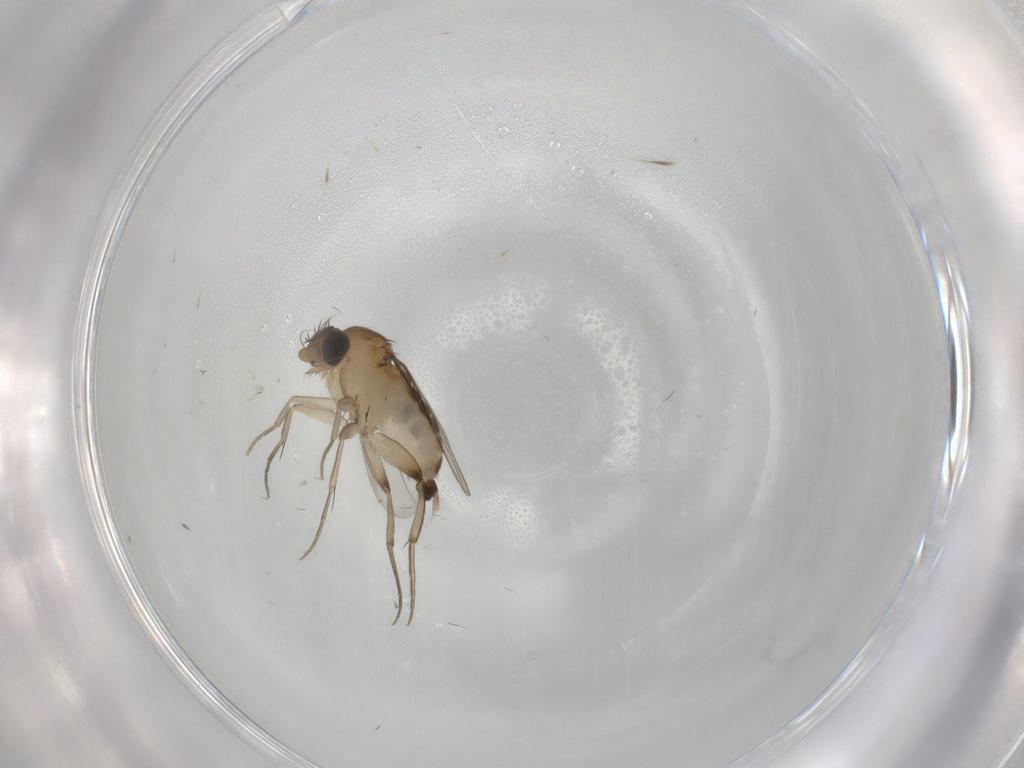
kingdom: Animalia
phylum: Arthropoda
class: Insecta
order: Diptera
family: Phoridae
